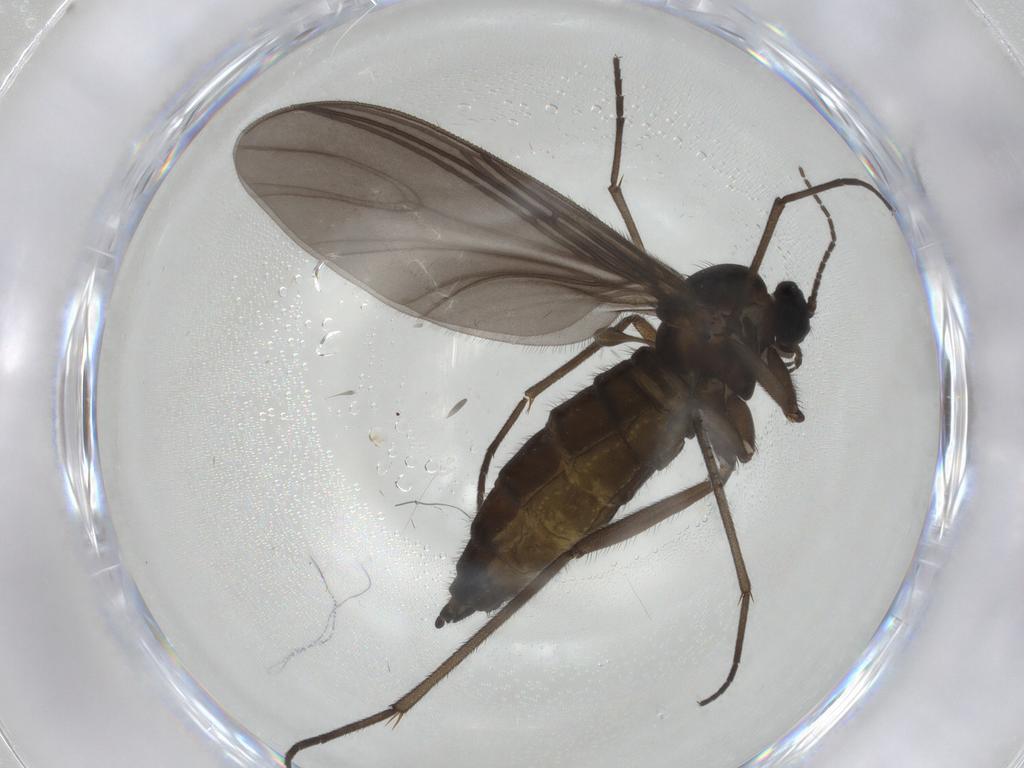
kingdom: Animalia
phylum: Arthropoda
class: Insecta
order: Diptera
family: Sciaridae
